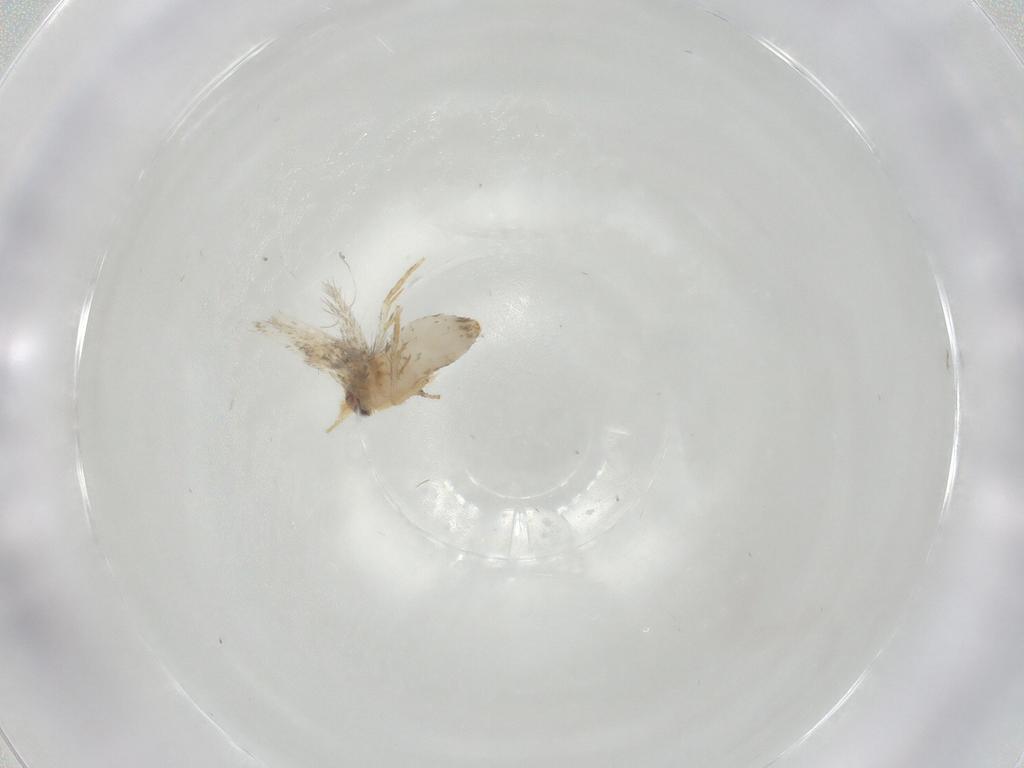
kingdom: Animalia
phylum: Arthropoda
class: Insecta
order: Lepidoptera
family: Nepticulidae
